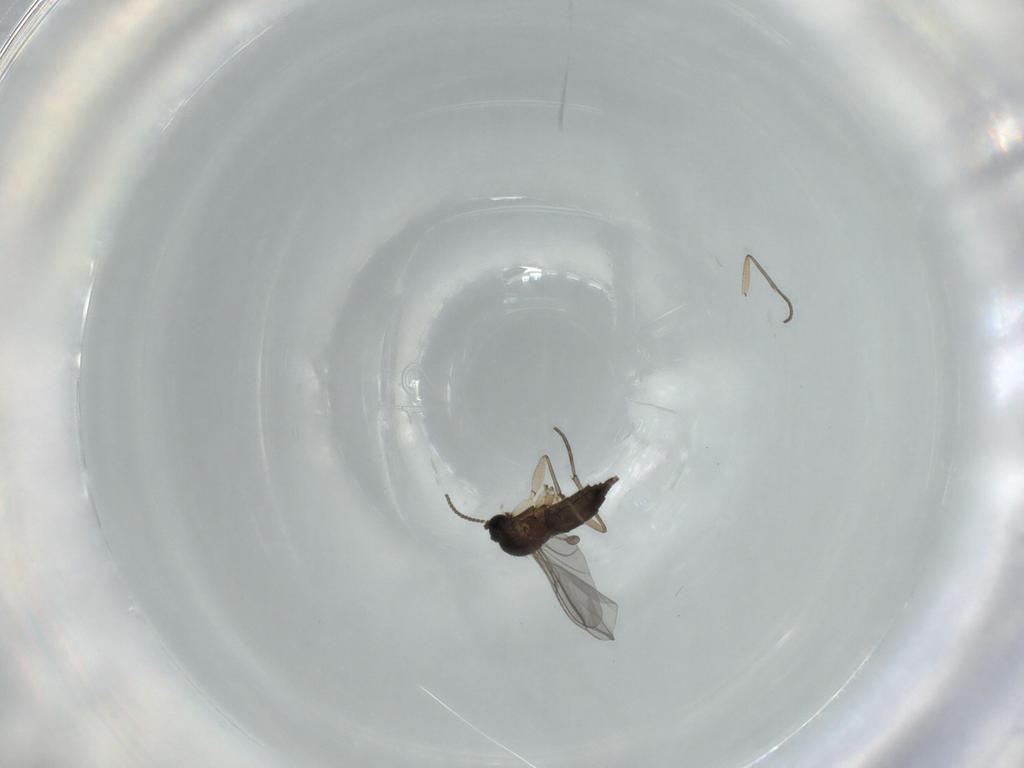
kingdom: Animalia
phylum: Arthropoda
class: Insecta
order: Diptera
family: Sciaridae
